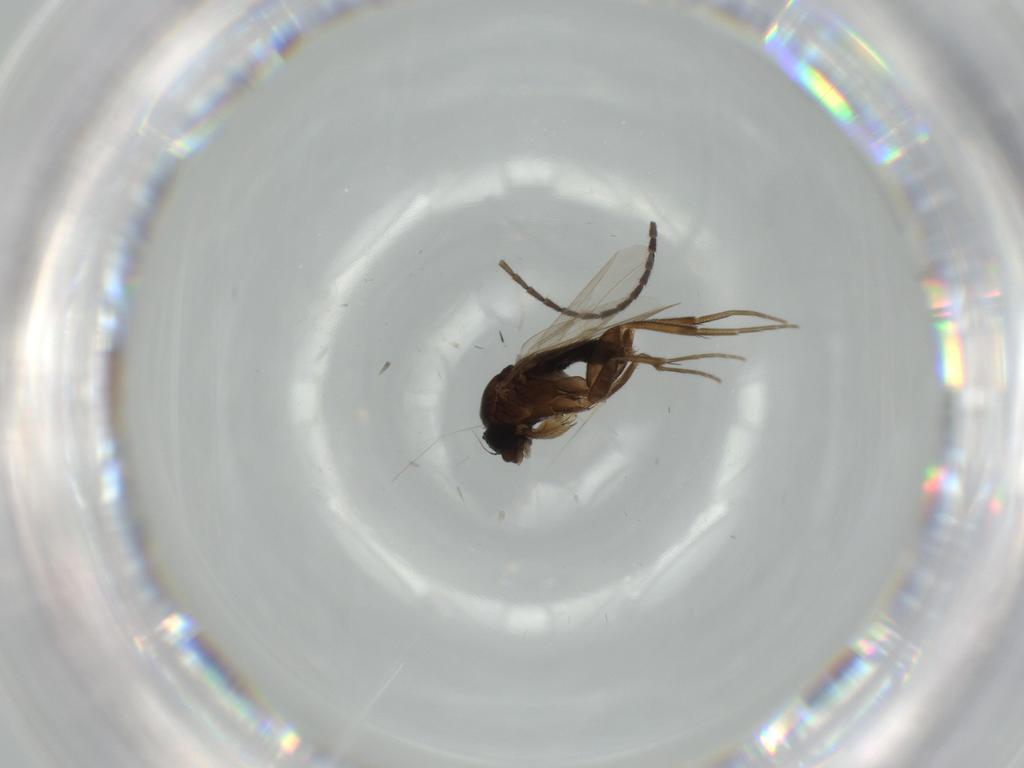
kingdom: Animalia
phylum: Arthropoda
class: Insecta
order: Diptera
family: Phoridae
